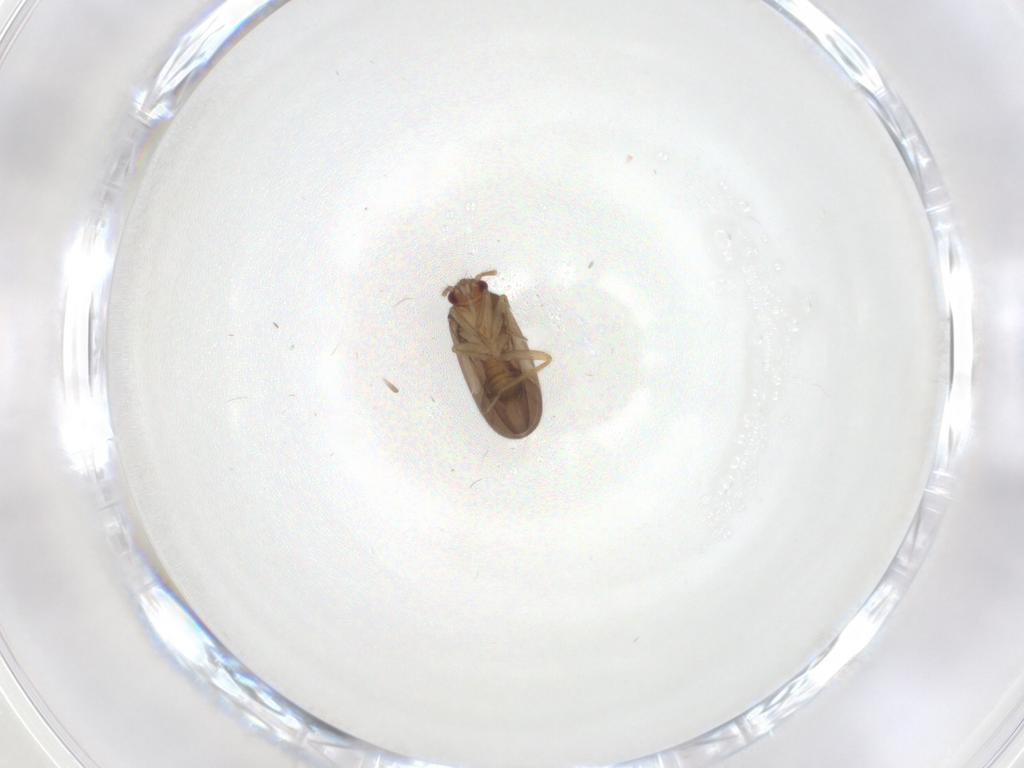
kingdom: Animalia
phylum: Arthropoda
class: Insecta
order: Hemiptera
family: Ceratocombidae
